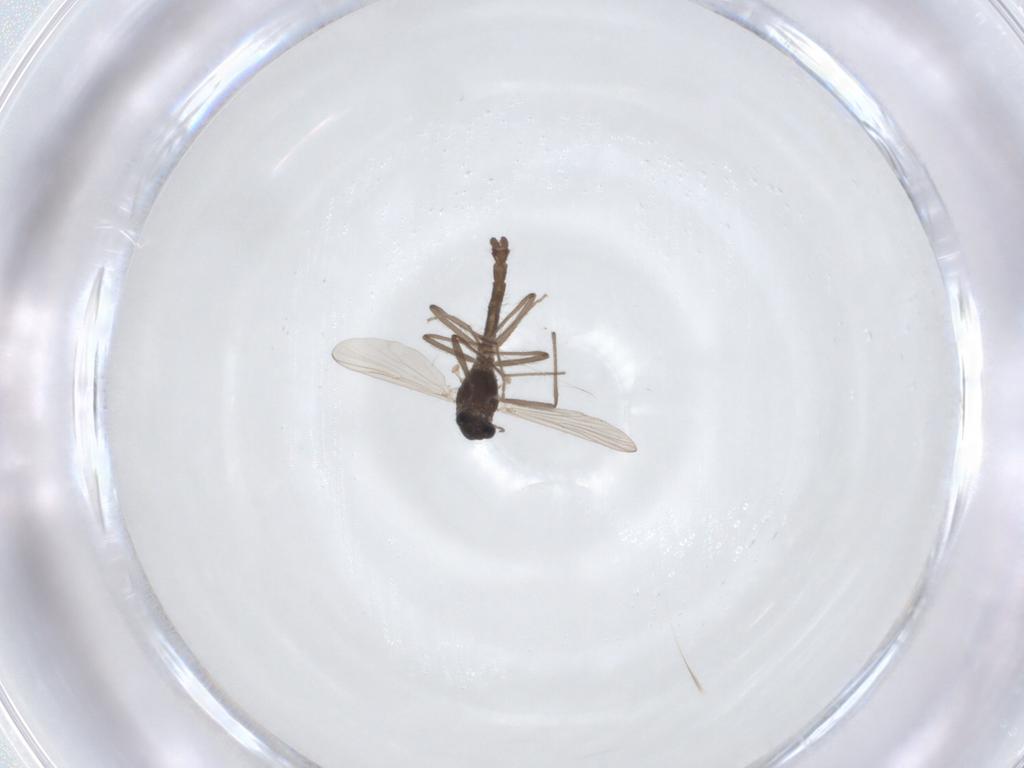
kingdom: Animalia
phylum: Arthropoda
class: Insecta
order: Diptera
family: Chironomidae
